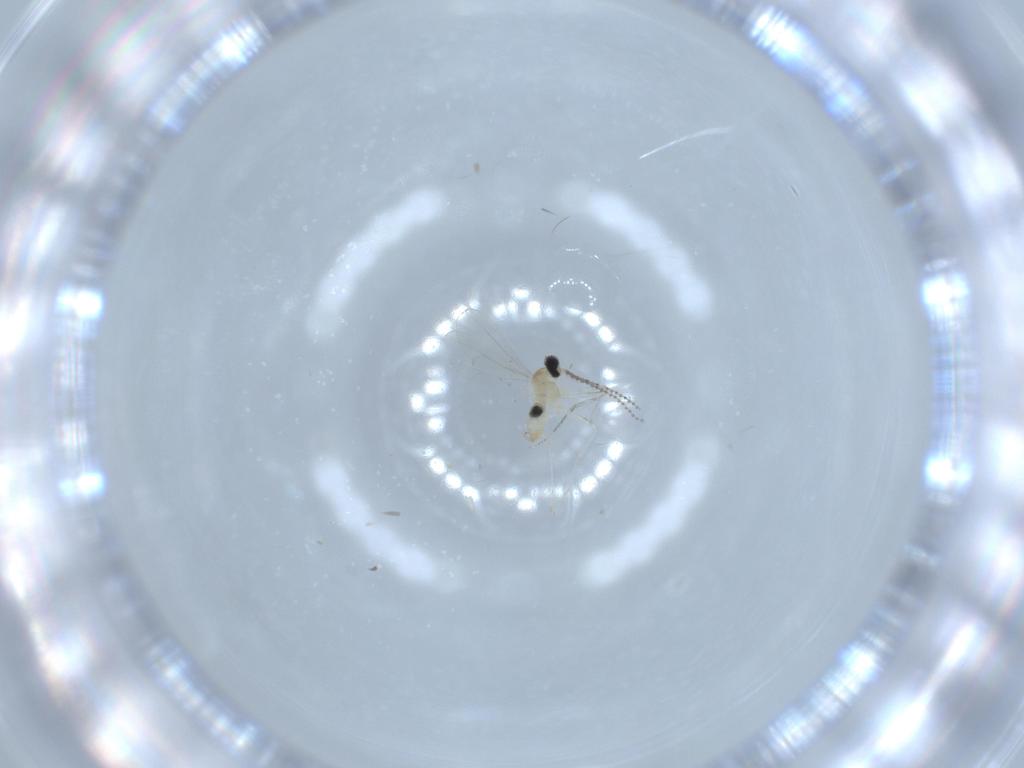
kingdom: Animalia
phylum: Arthropoda
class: Insecta
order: Diptera
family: Cecidomyiidae
